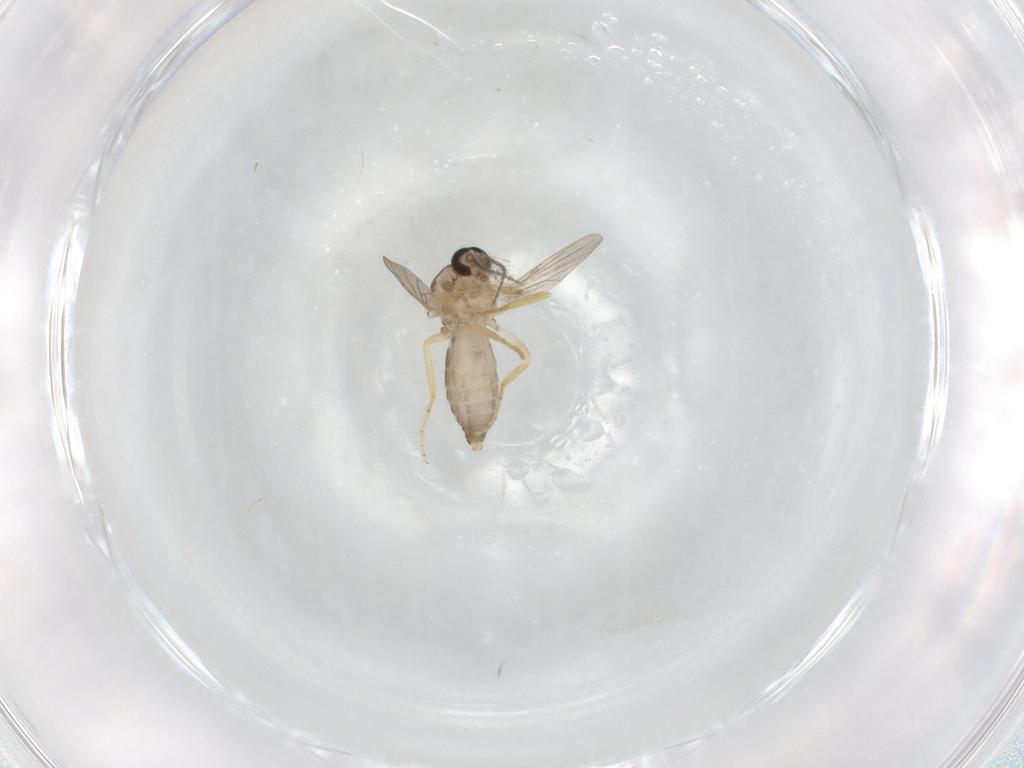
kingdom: Animalia
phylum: Arthropoda
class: Insecta
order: Diptera
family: Ceratopogonidae
